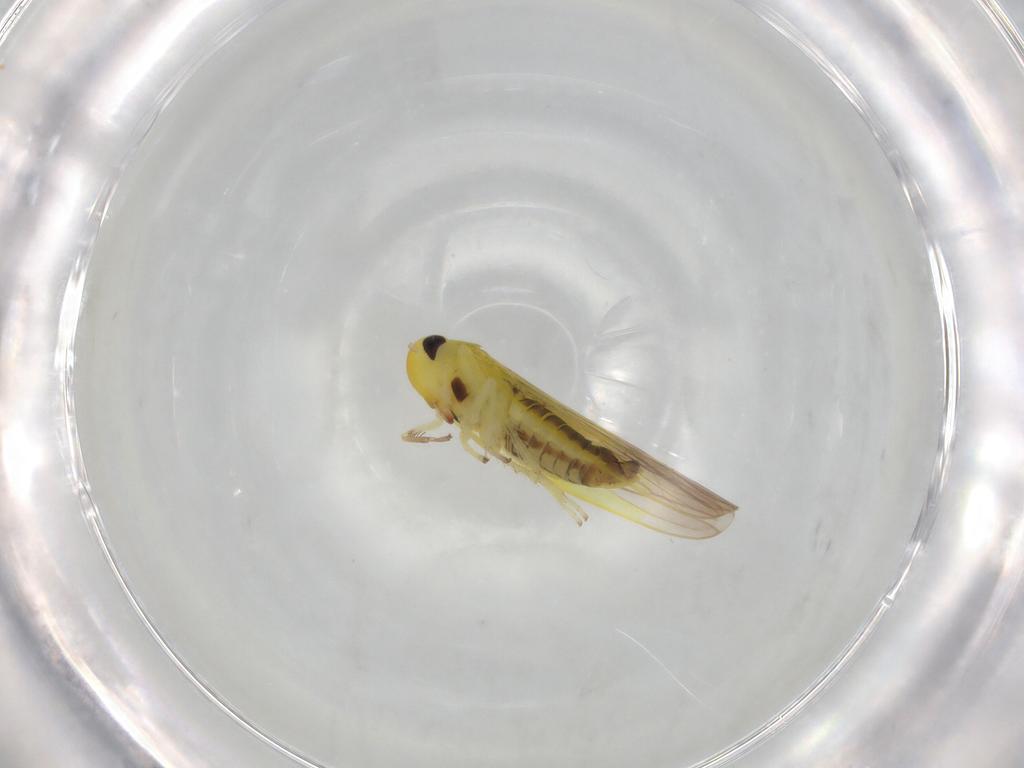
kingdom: Animalia
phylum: Arthropoda
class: Insecta
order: Hemiptera
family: Cicadellidae
